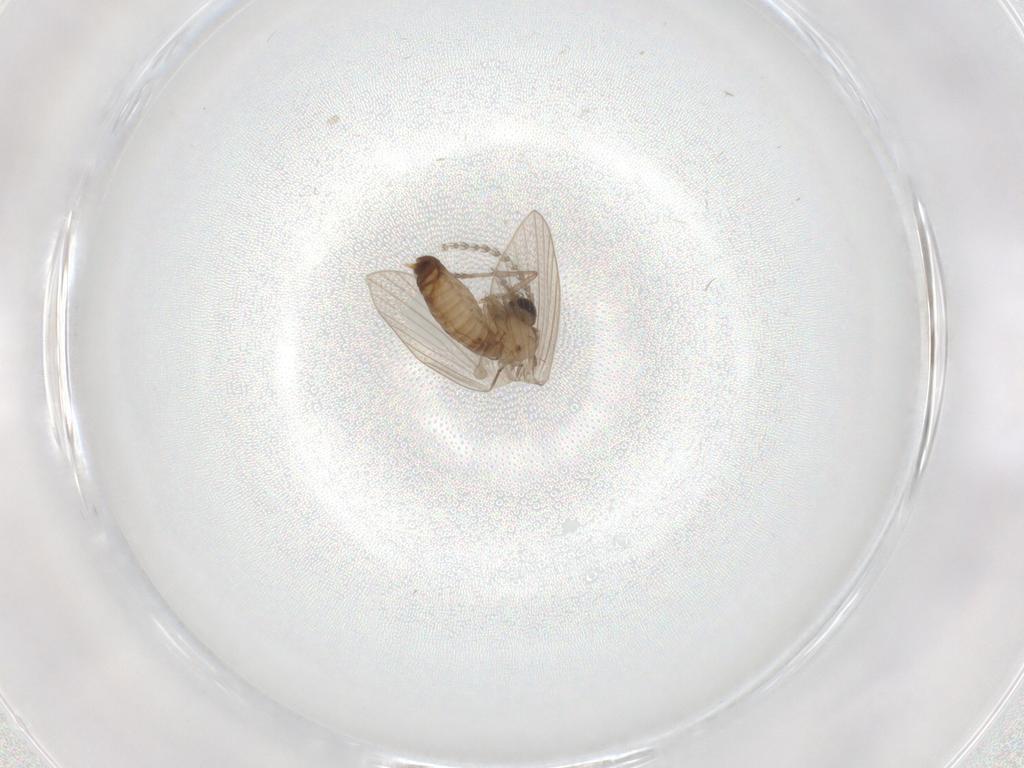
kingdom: Animalia
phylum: Arthropoda
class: Insecta
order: Diptera
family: Psychodidae
